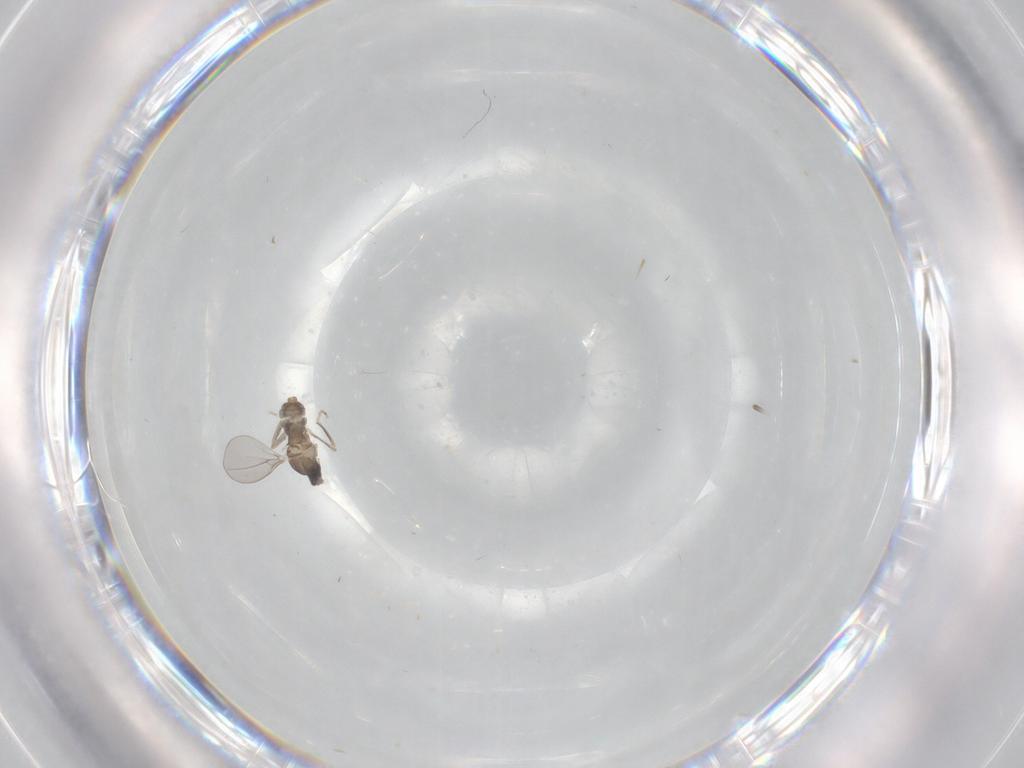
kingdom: Animalia
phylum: Arthropoda
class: Insecta
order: Diptera
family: Cecidomyiidae
